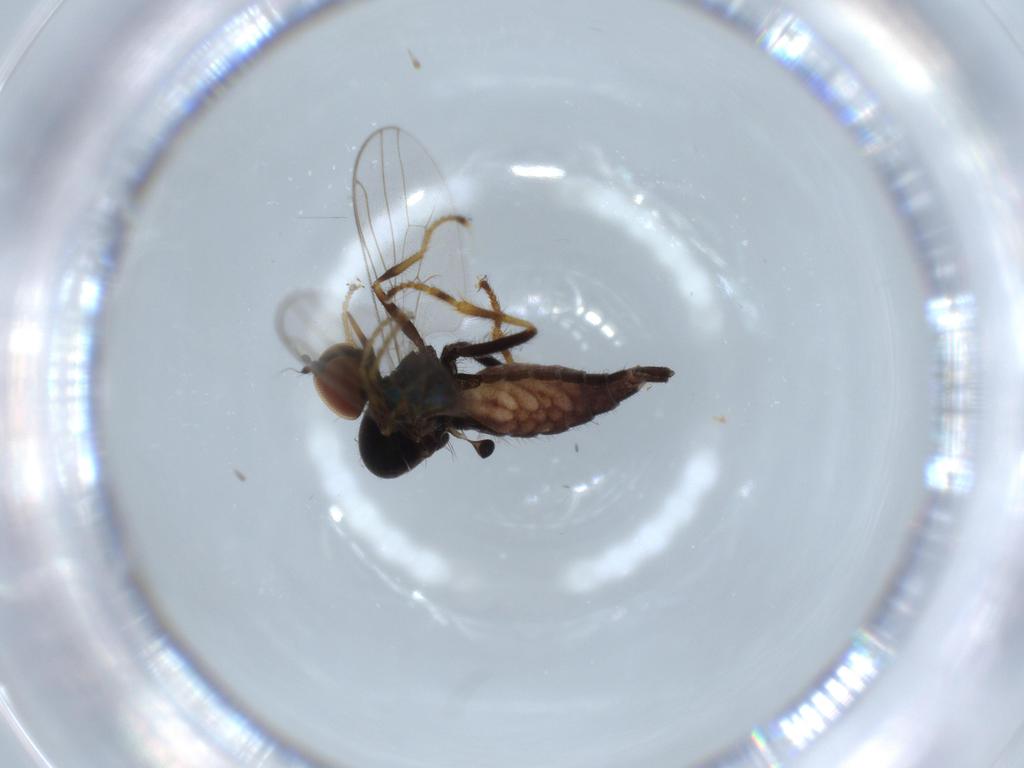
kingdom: Animalia
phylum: Arthropoda
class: Insecta
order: Diptera
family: Hybotidae
